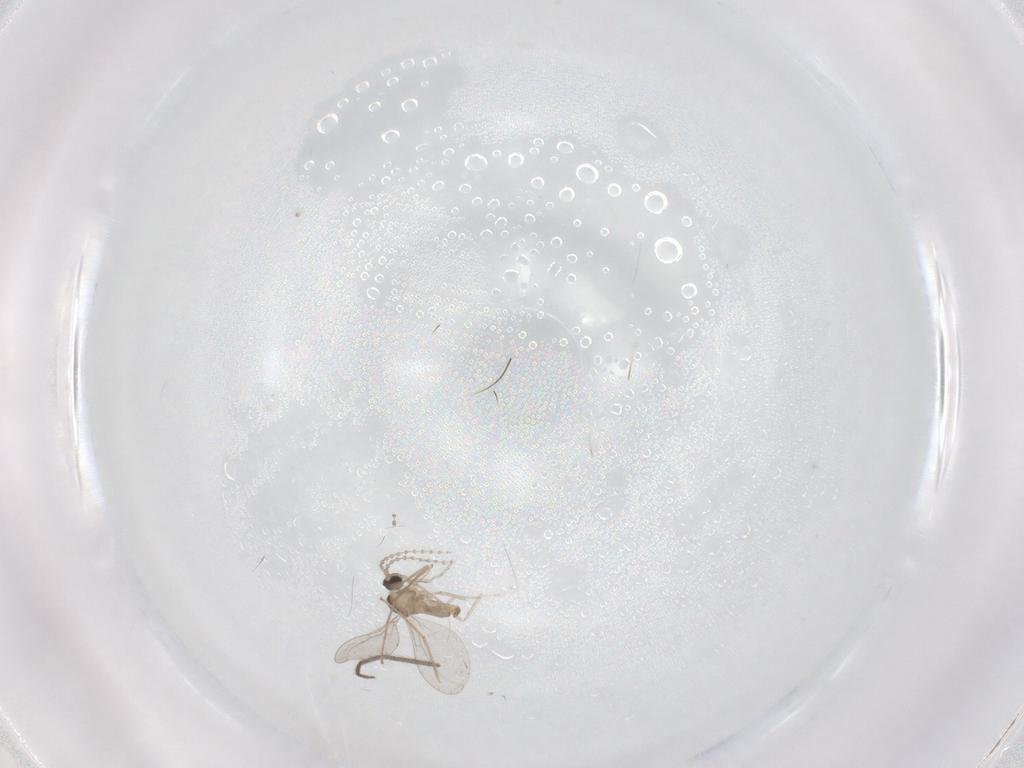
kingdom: Animalia
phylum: Arthropoda
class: Insecta
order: Diptera
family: Cecidomyiidae
